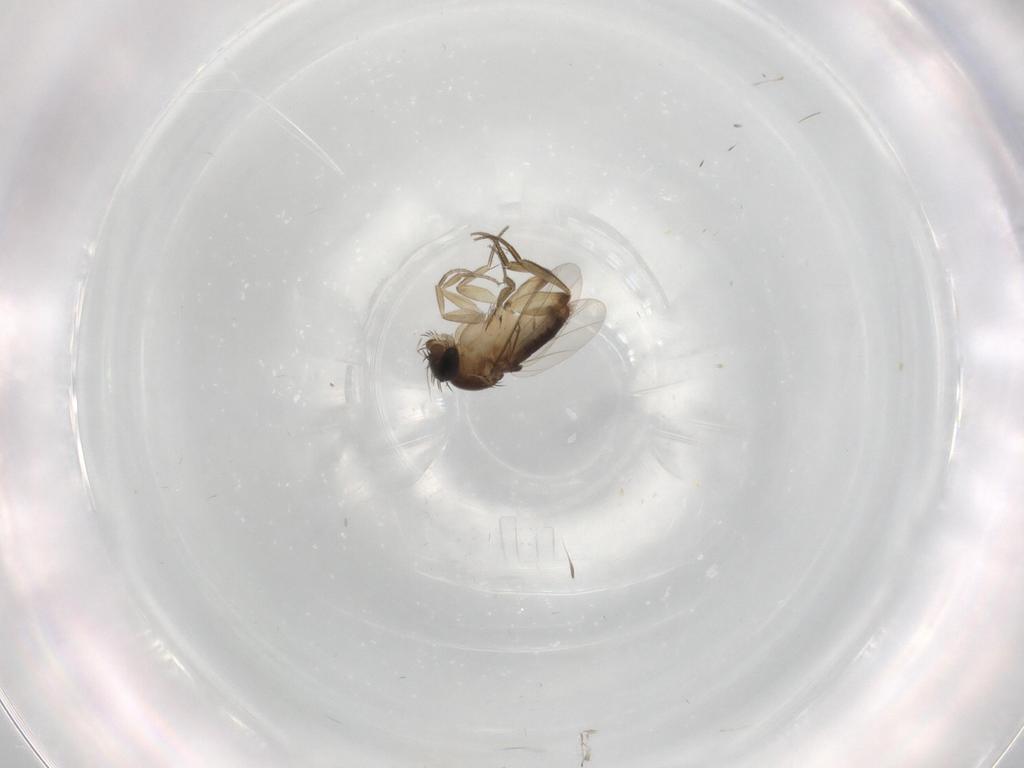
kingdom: Animalia
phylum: Arthropoda
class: Insecta
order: Diptera
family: Phoridae
